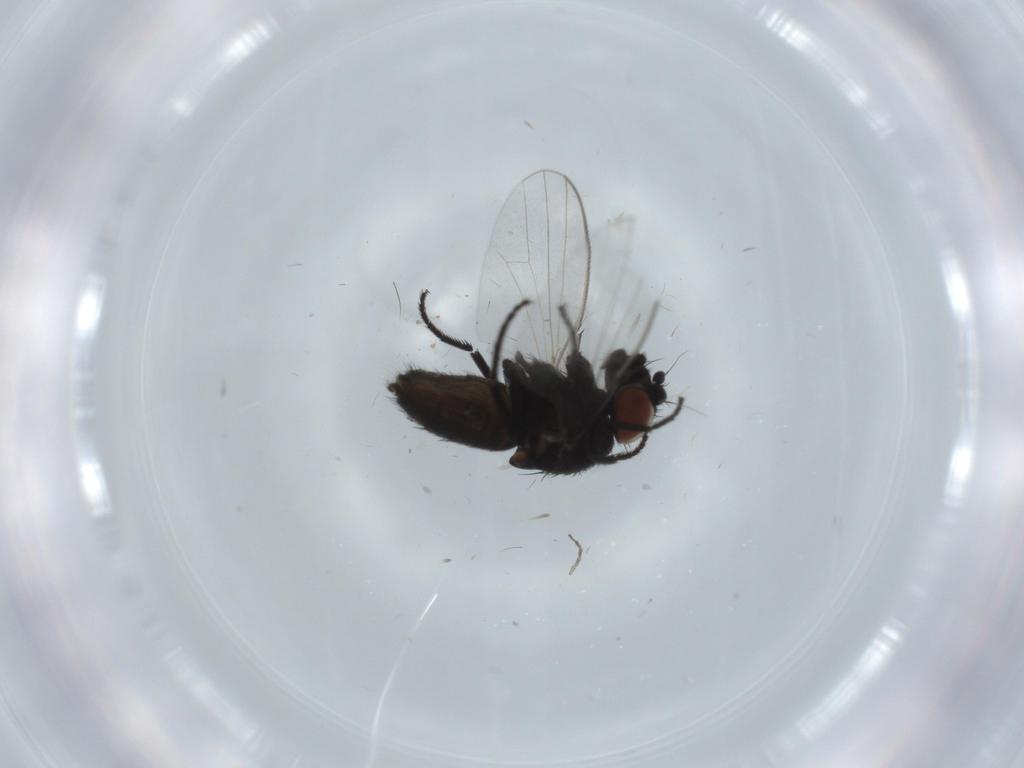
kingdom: Animalia
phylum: Arthropoda
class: Insecta
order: Diptera
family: Milichiidae
